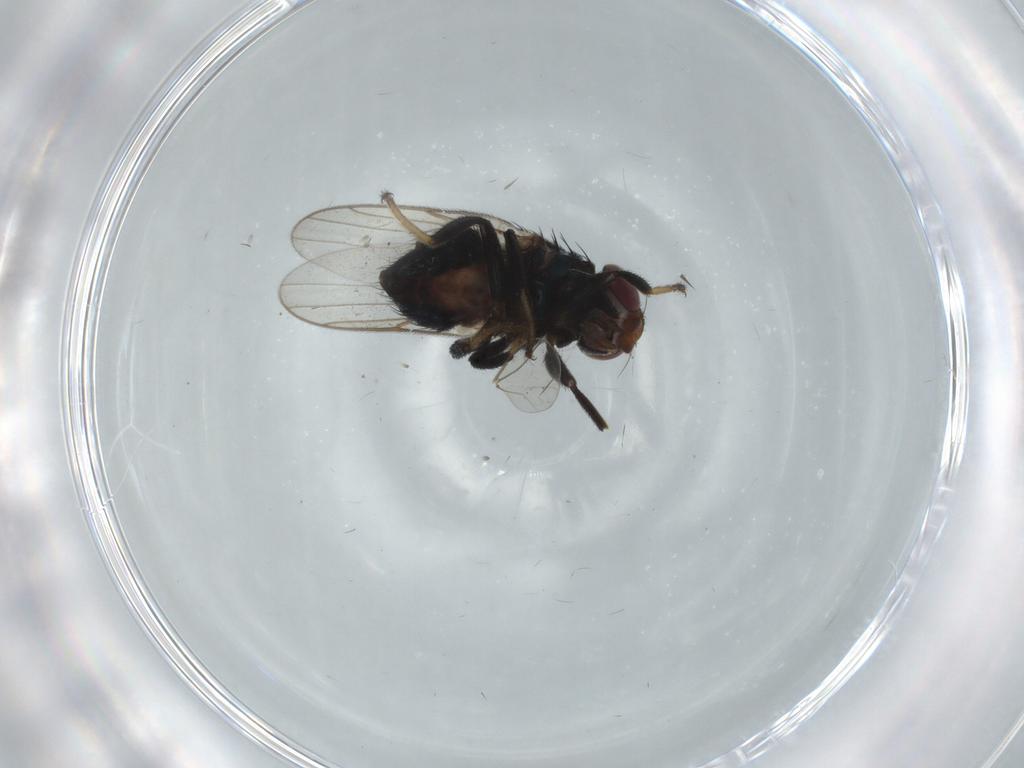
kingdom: Animalia
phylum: Arthropoda
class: Insecta
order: Diptera
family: Chloropidae
